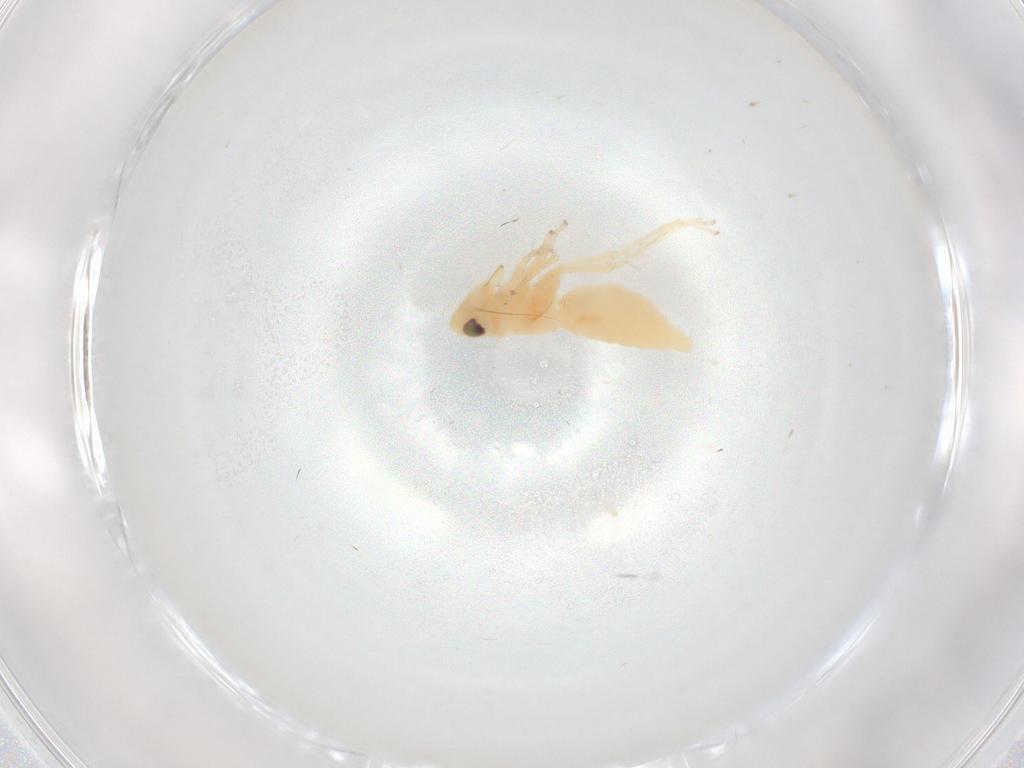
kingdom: Animalia
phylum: Arthropoda
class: Insecta
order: Hemiptera
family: Cicadellidae
